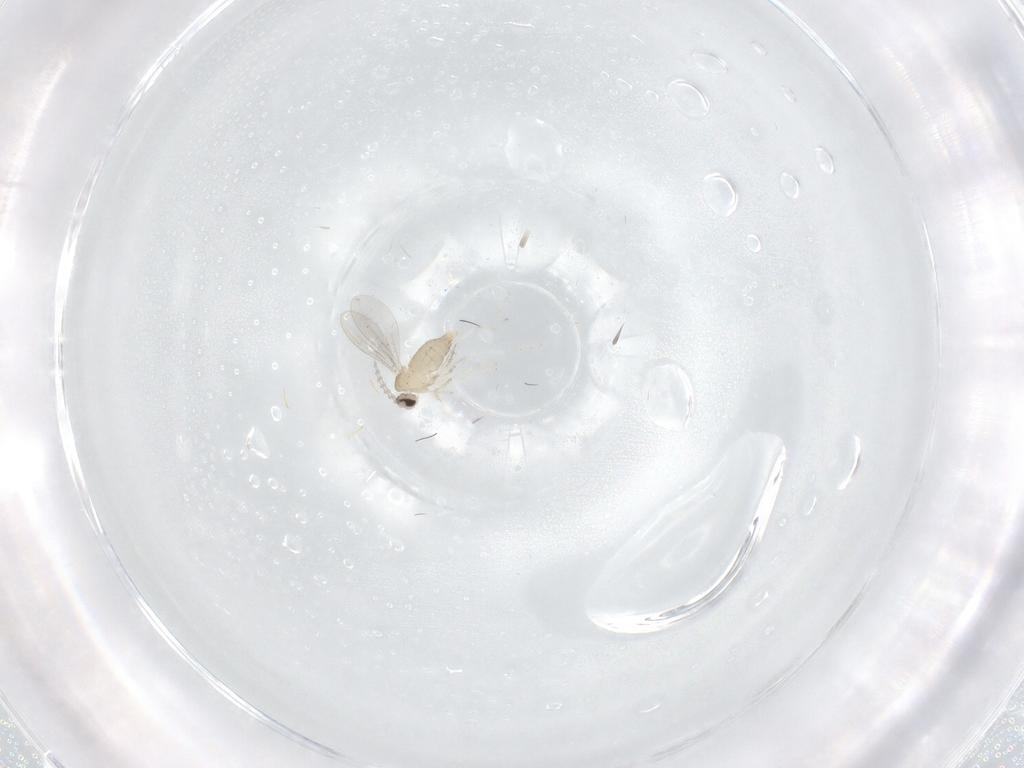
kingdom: Animalia
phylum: Arthropoda
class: Insecta
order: Diptera
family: Cecidomyiidae
